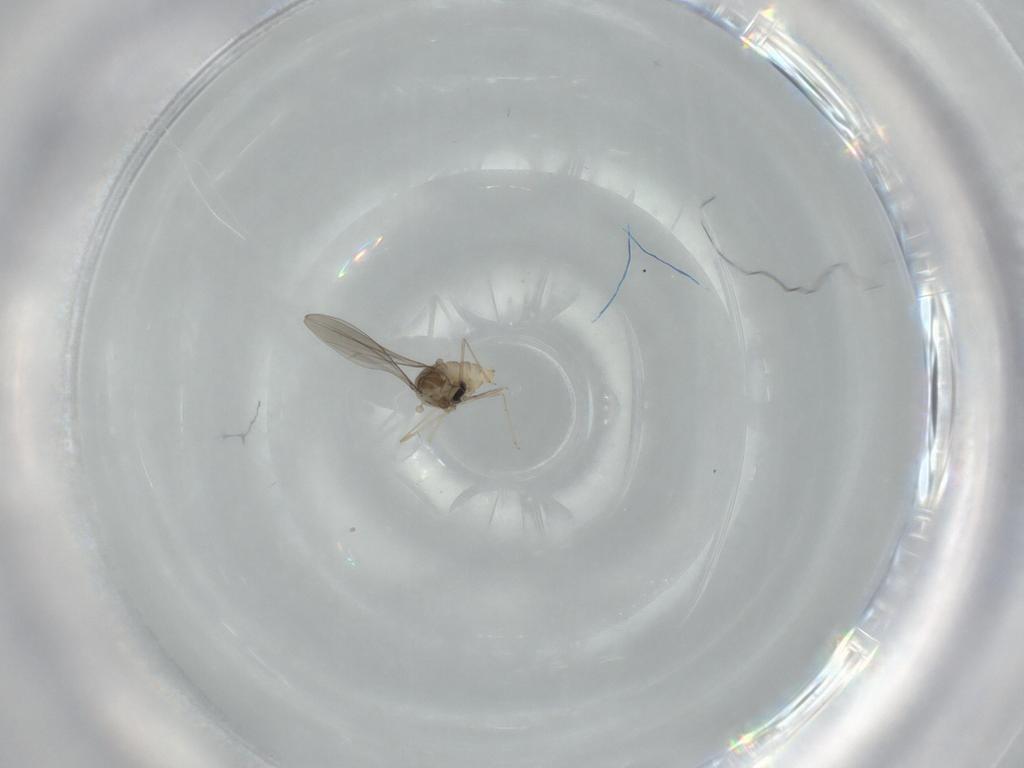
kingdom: Animalia
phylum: Arthropoda
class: Insecta
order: Diptera
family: Chironomidae
